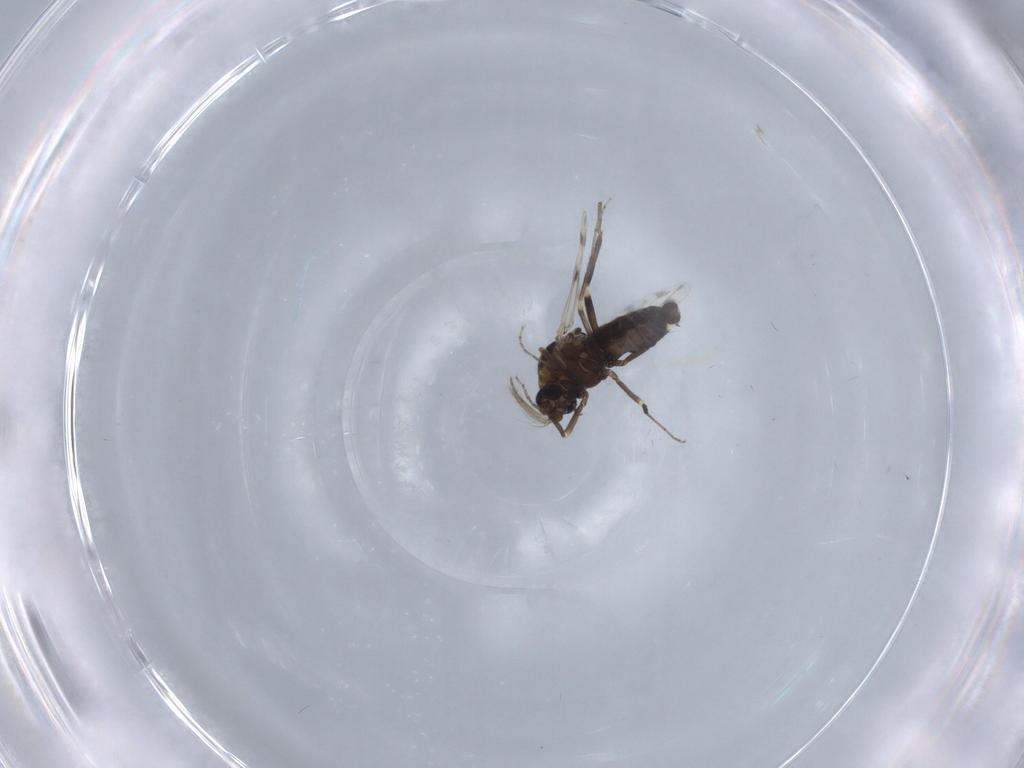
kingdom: Animalia
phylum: Arthropoda
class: Insecta
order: Diptera
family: Ceratopogonidae
